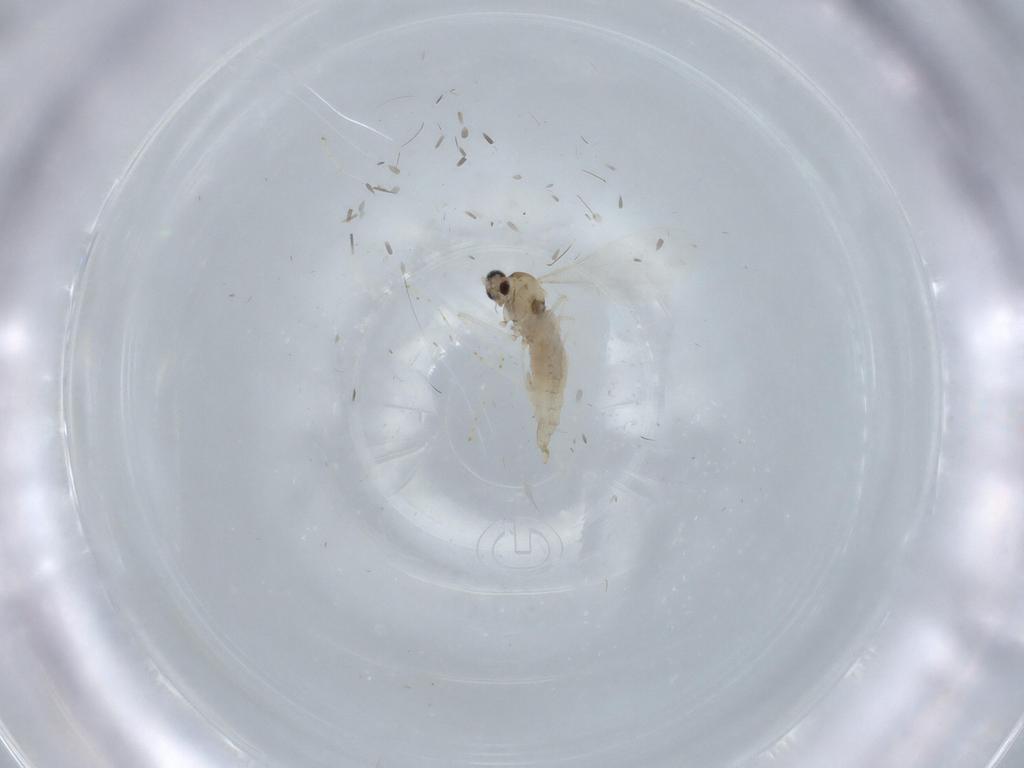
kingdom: Animalia
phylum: Arthropoda
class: Insecta
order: Diptera
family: Cecidomyiidae
